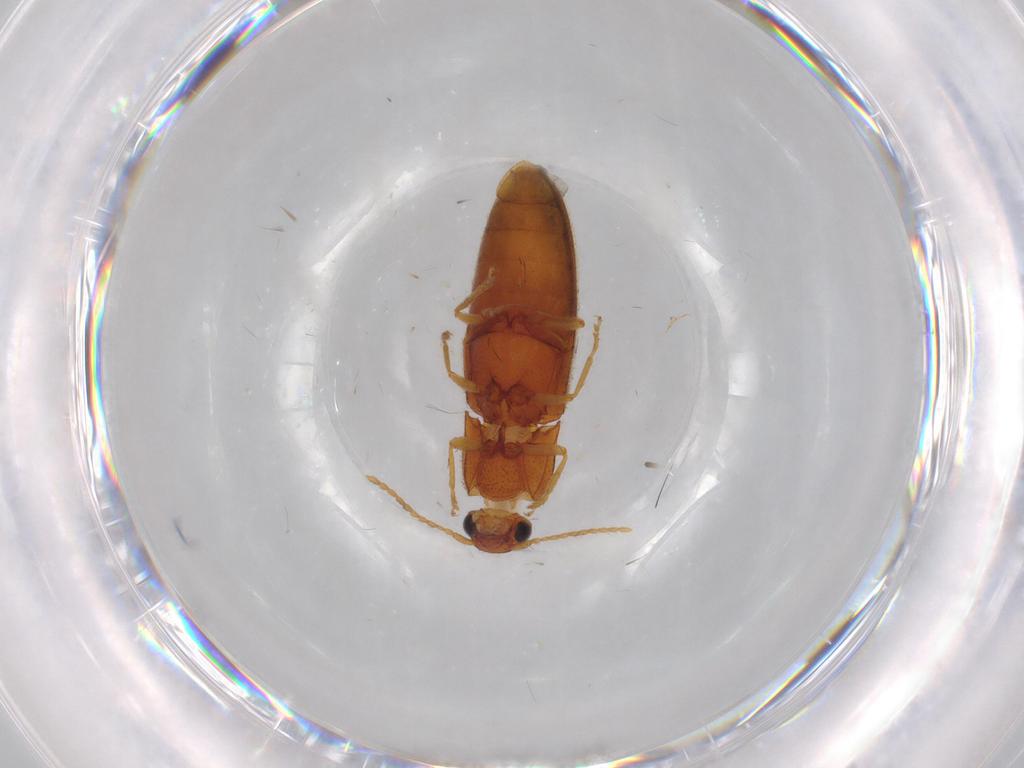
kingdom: Animalia
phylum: Arthropoda
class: Insecta
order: Coleoptera
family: Elateridae
